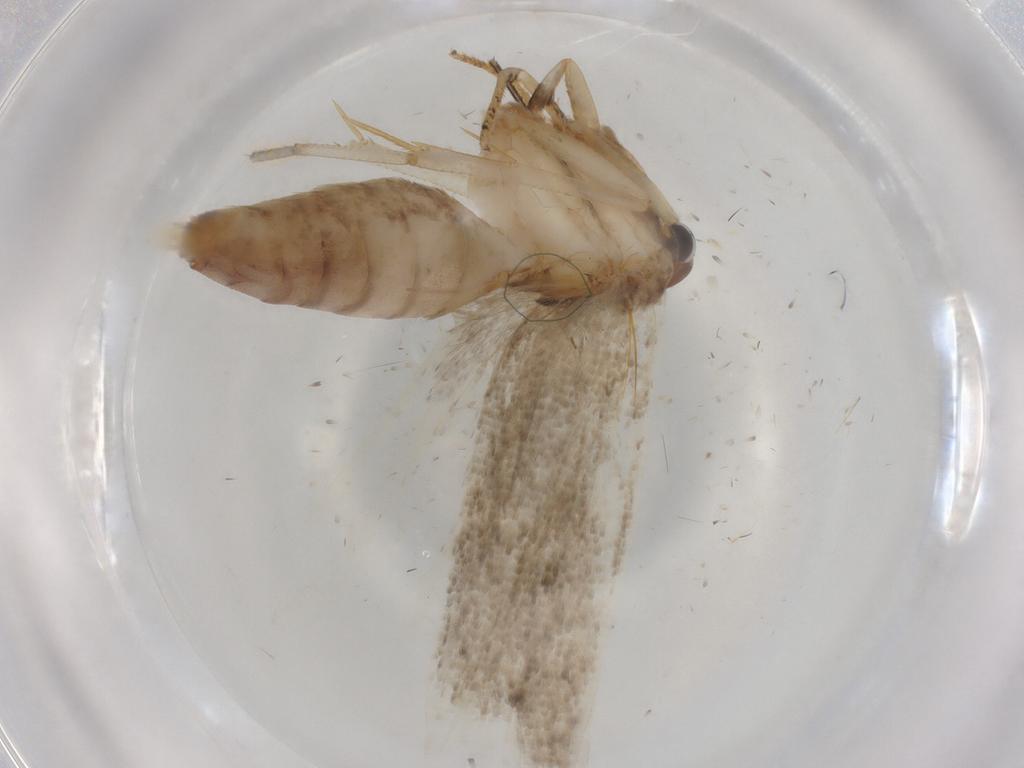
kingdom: Animalia
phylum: Arthropoda
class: Insecta
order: Lepidoptera
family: Gelechiidae
